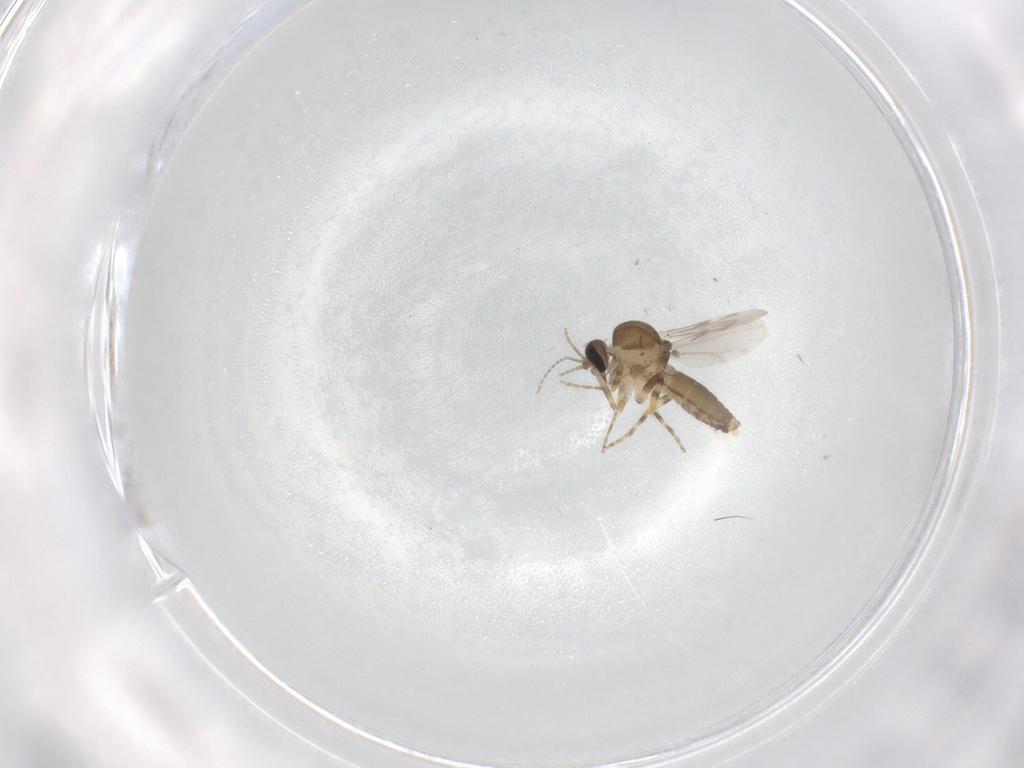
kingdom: Animalia
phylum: Arthropoda
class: Insecta
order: Diptera
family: Ceratopogonidae
